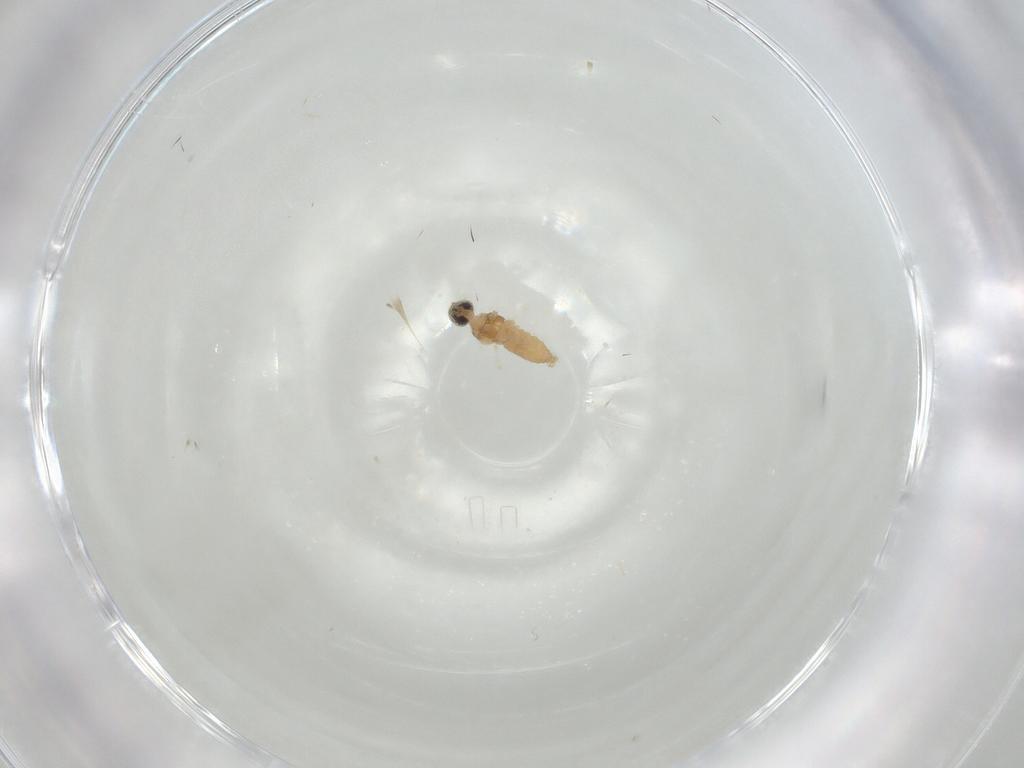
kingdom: Animalia
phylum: Arthropoda
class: Insecta
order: Diptera
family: Cecidomyiidae
